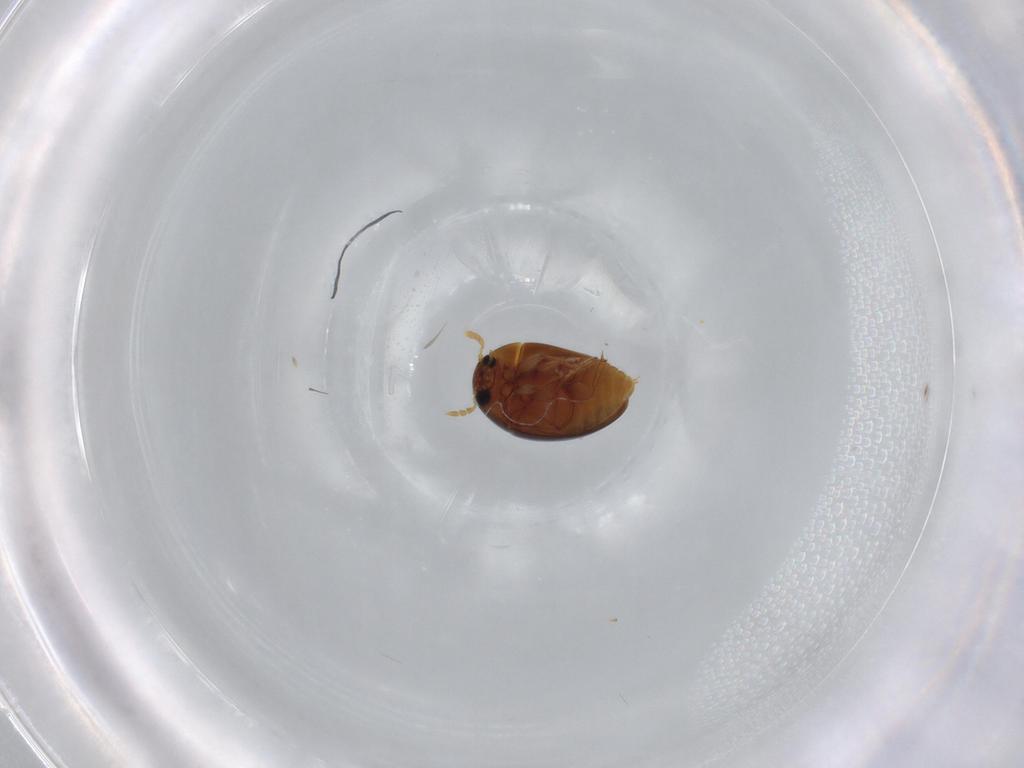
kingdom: Animalia
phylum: Arthropoda
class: Insecta
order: Coleoptera
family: Phalacridae
